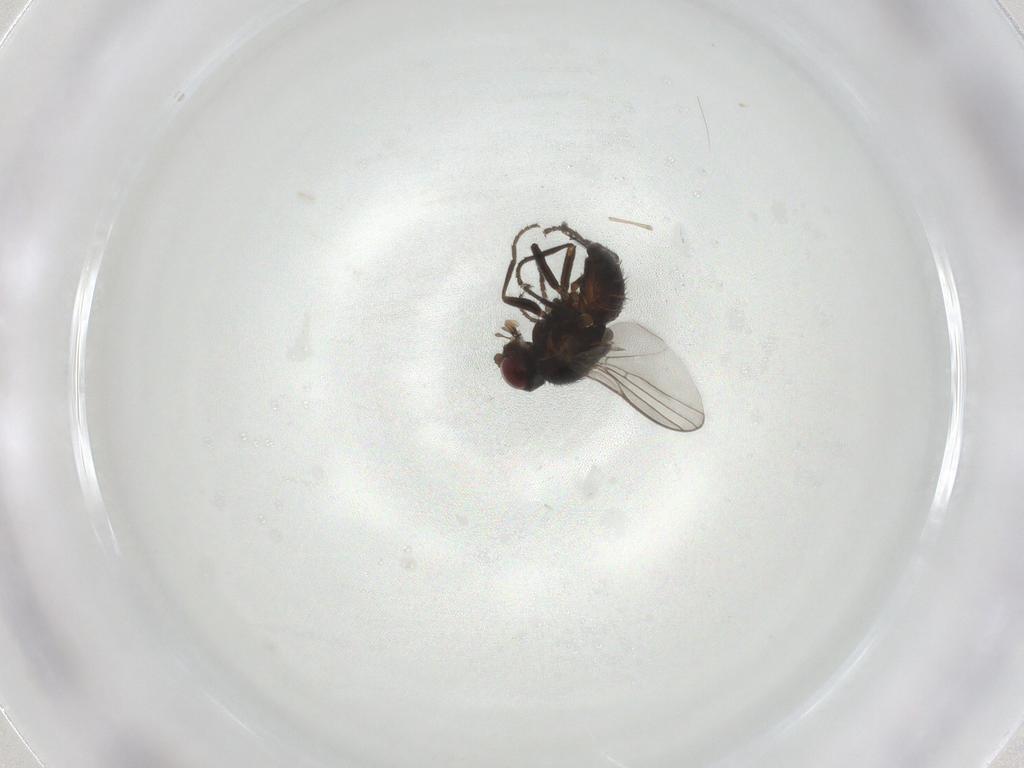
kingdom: Animalia
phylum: Arthropoda
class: Insecta
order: Diptera
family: Agromyzidae
